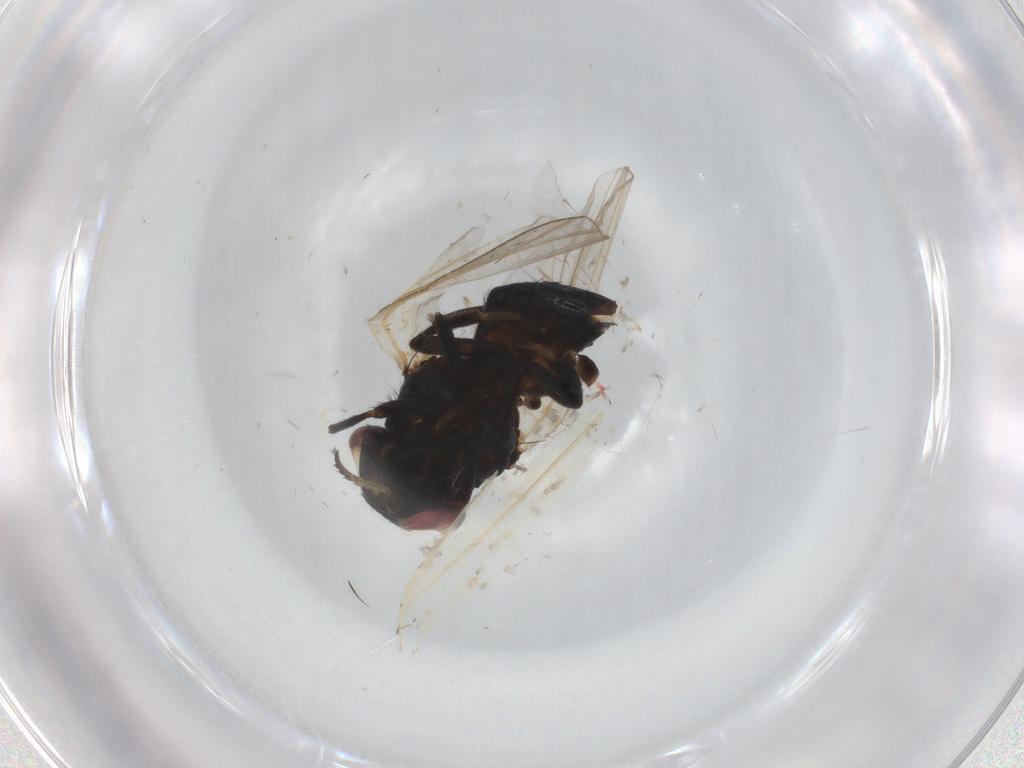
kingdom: Animalia
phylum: Arthropoda
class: Insecta
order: Diptera
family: Lonchaeidae
